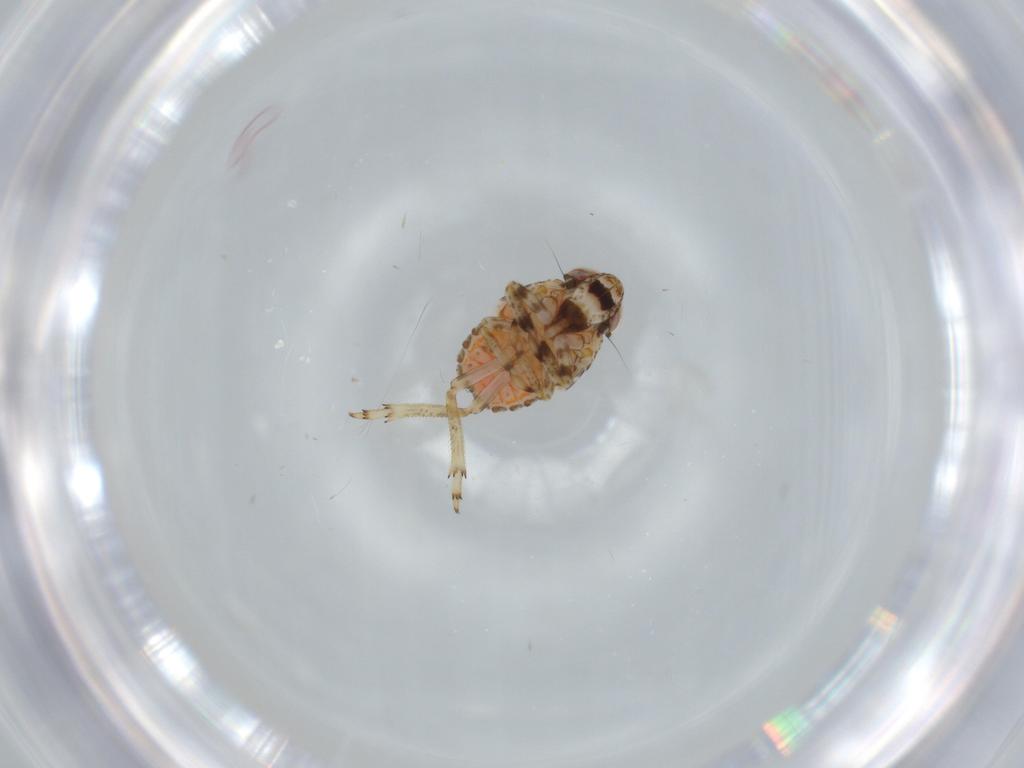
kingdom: Animalia
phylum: Arthropoda
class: Insecta
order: Hemiptera
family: Issidae
